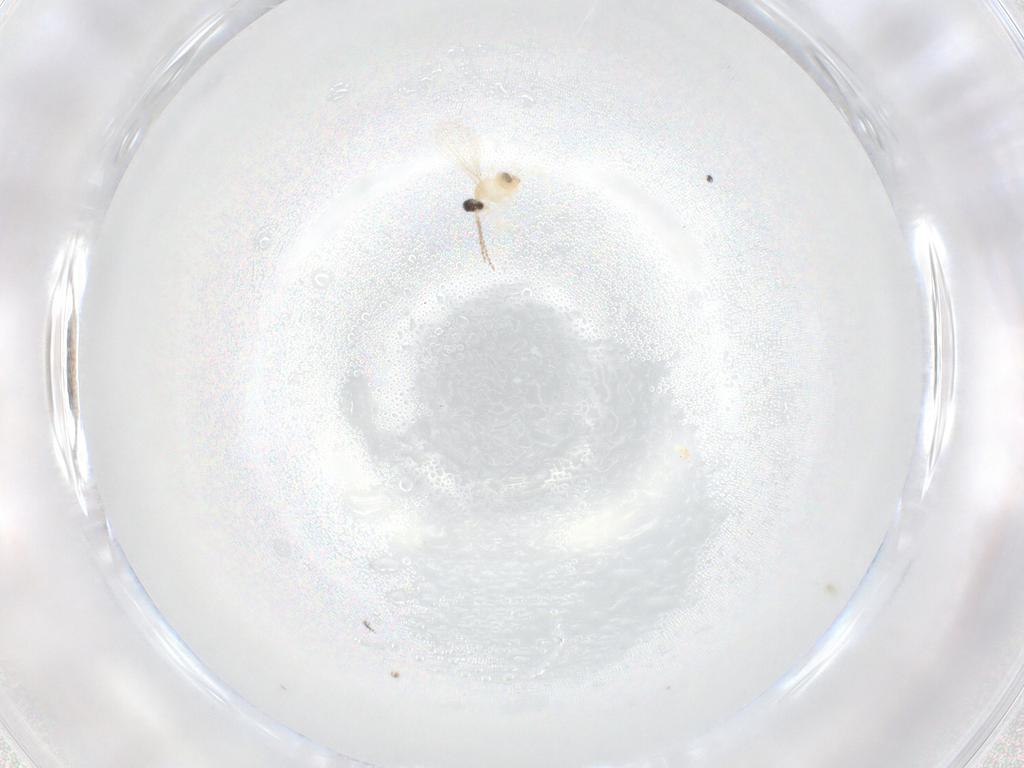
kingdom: Animalia
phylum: Arthropoda
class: Insecta
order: Diptera
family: Cecidomyiidae
